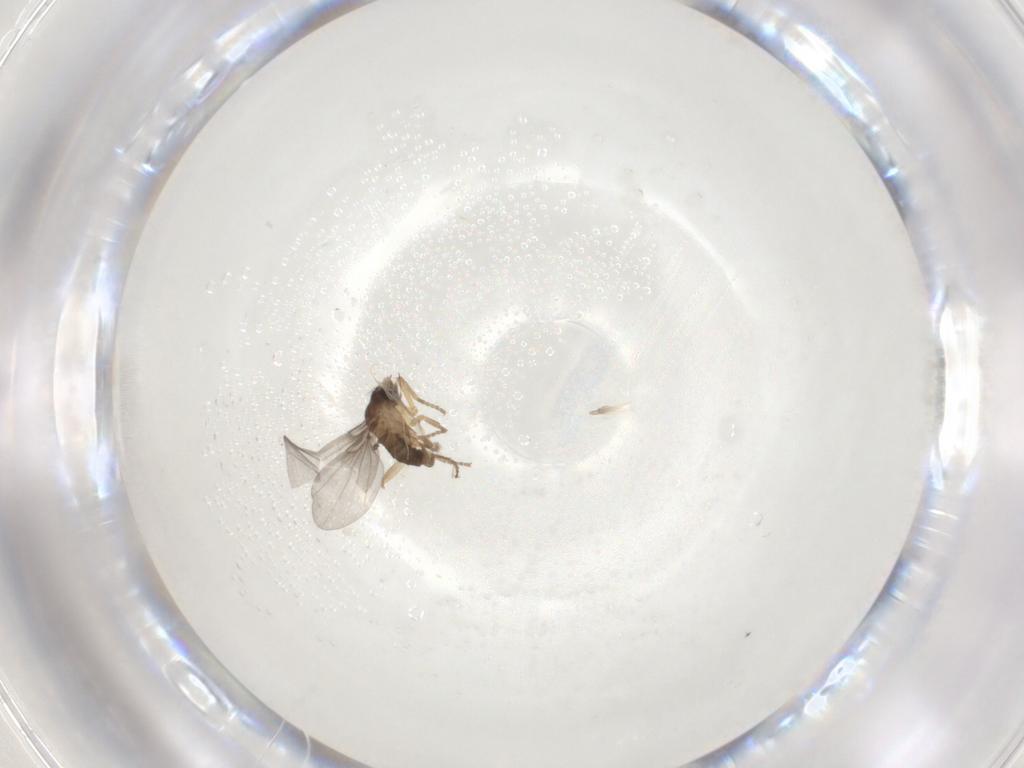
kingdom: Animalia
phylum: Arthropoda
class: Insecta
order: Diptera
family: Phoridae
